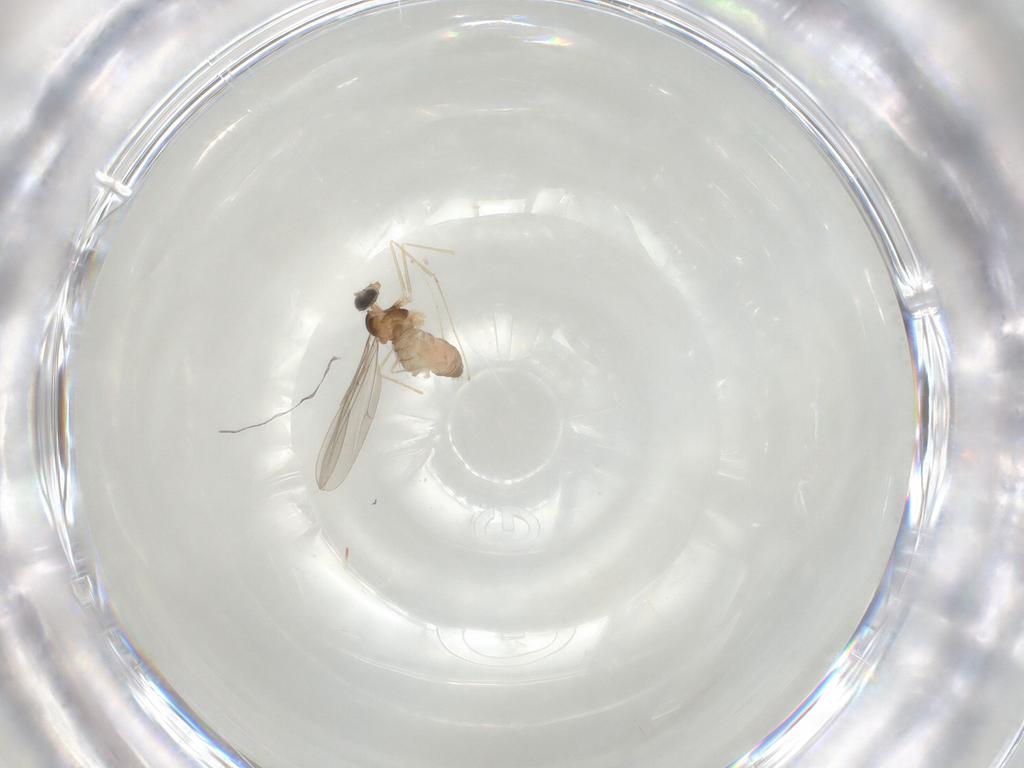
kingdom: Animalia
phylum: Arthropoda
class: Insecta
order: Diptera
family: Cecidomyiidae
